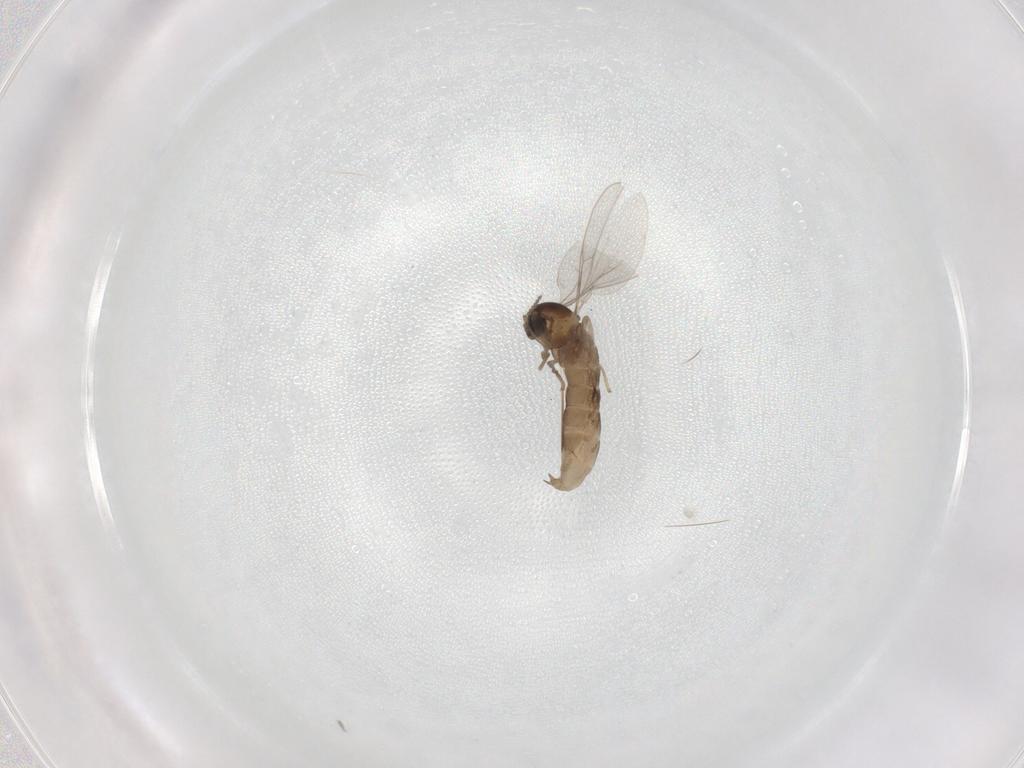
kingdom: Animalia
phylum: Arthropoda
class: Insecta
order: Diptera
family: Cecidomyiidae
